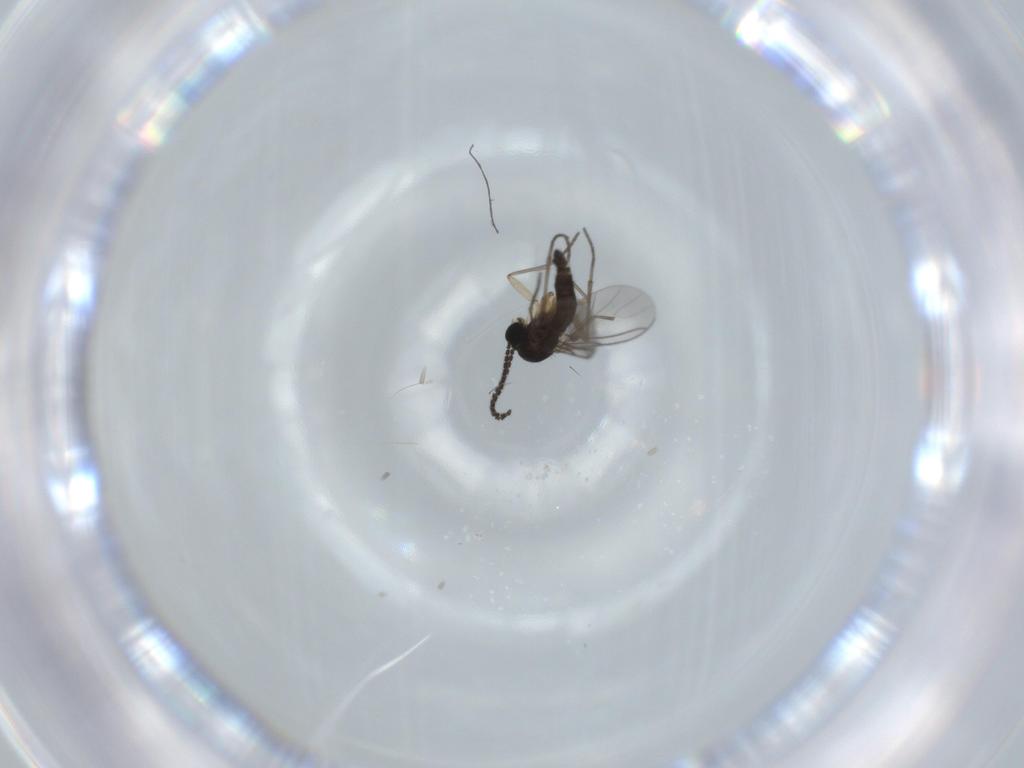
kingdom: Animalia
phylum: Arthropoda
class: Insecta
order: Diptera
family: Sciaridae
